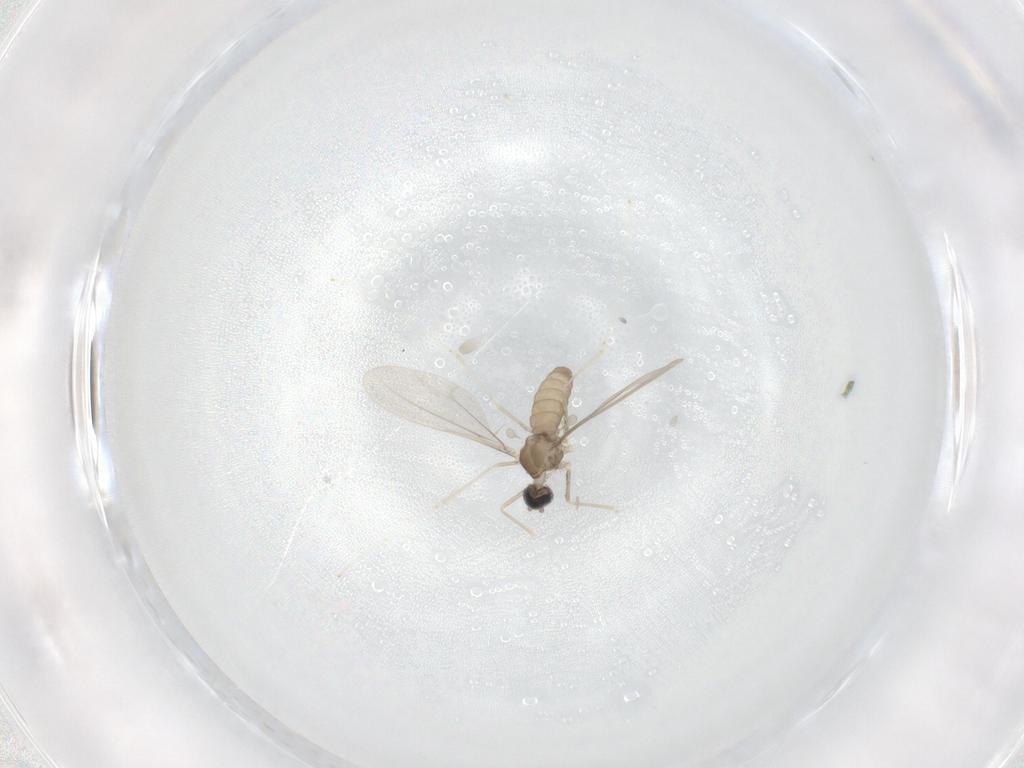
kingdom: Animalia
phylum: Arthropoda
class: Insecta
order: Diptera
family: Cecidomyiidae
